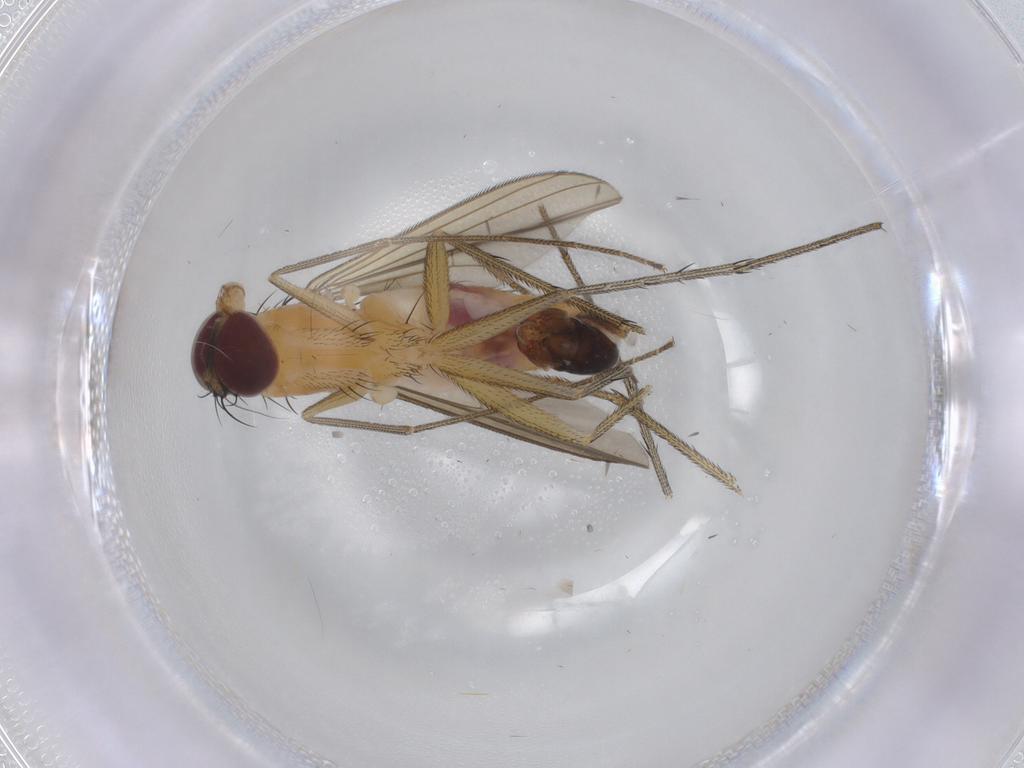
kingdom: Animalia
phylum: Arthropoda
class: Insecta
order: Diptera
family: Dolichopodidae
